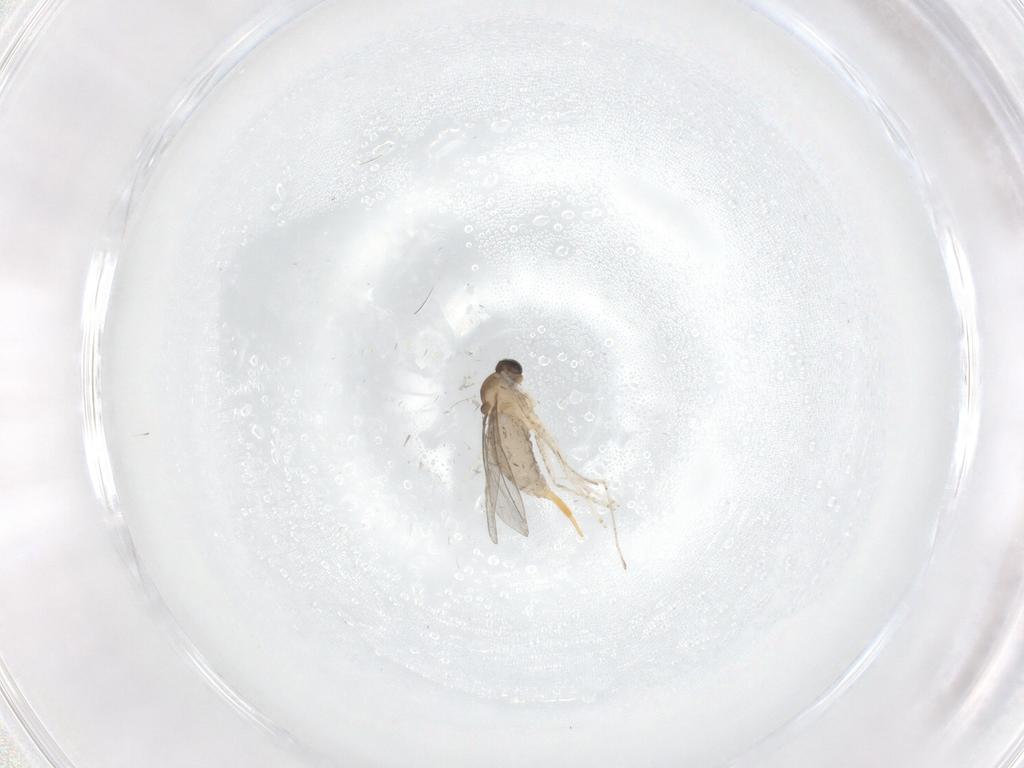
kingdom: Animalia
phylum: Arthropoda
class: Insecta
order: Diptera
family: Cecidomyiidae
